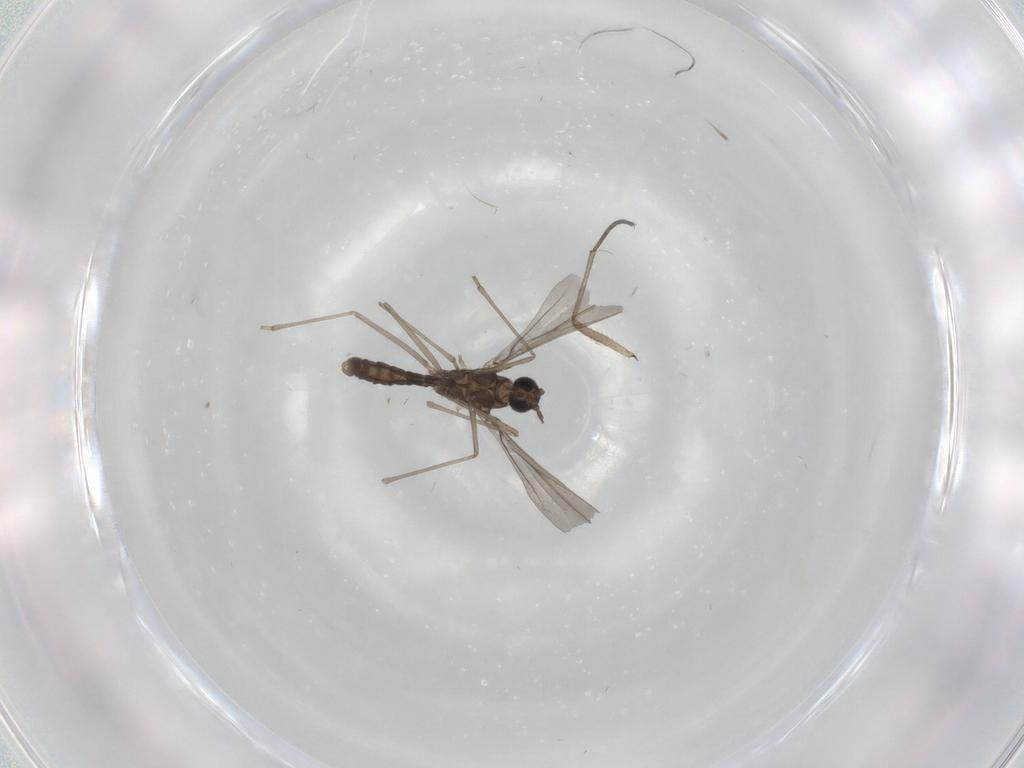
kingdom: Animalia
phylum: Arthropoda
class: Insecta
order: Diptera
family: Cecidomyiidae
